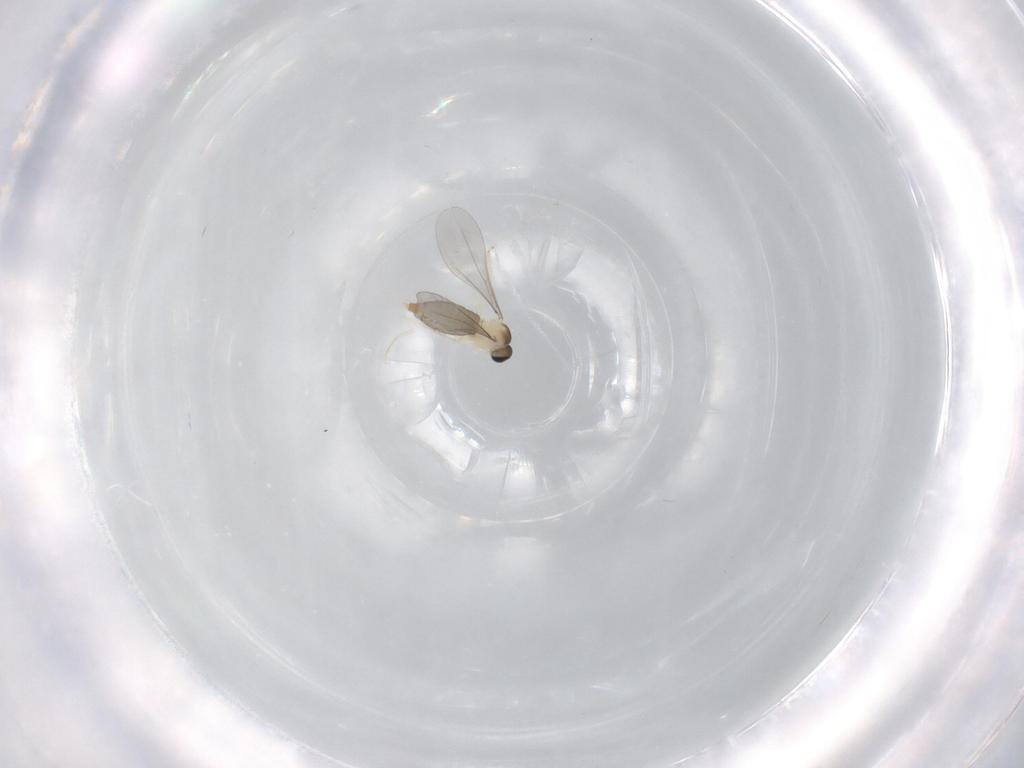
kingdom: Animalia
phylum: Arthropoda
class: Insecta
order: Diptera
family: Cecidomyiidae
